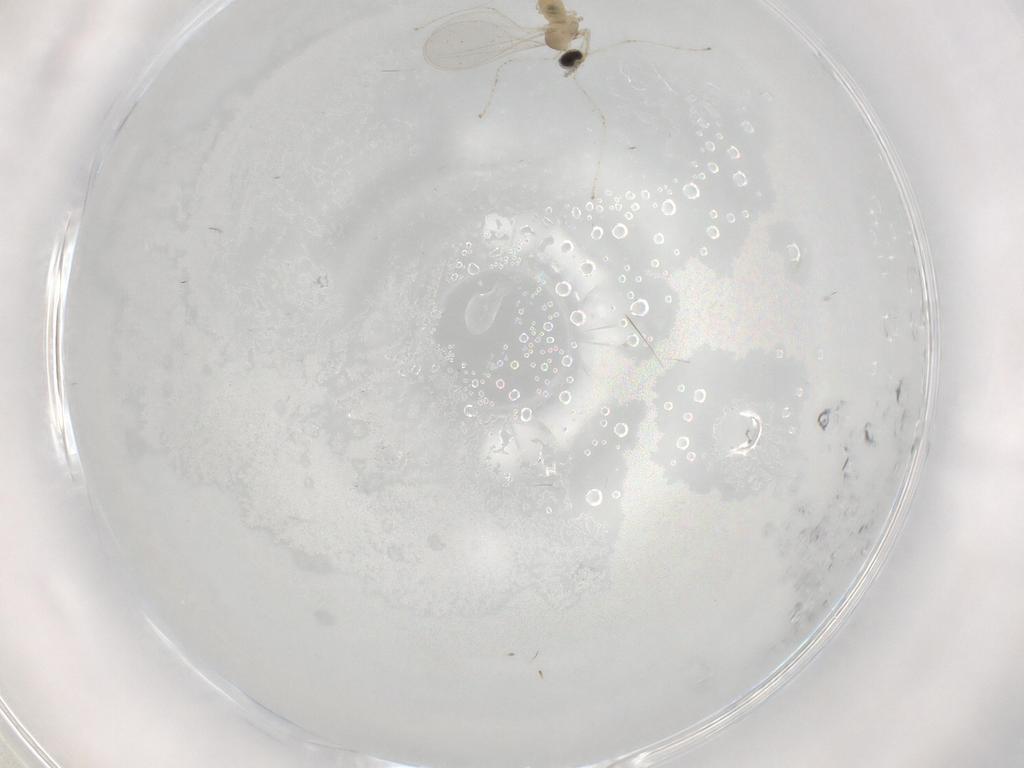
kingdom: Animalia
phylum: Arthropoda
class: Insecta
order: Diptera
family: Cecidomyiidae
